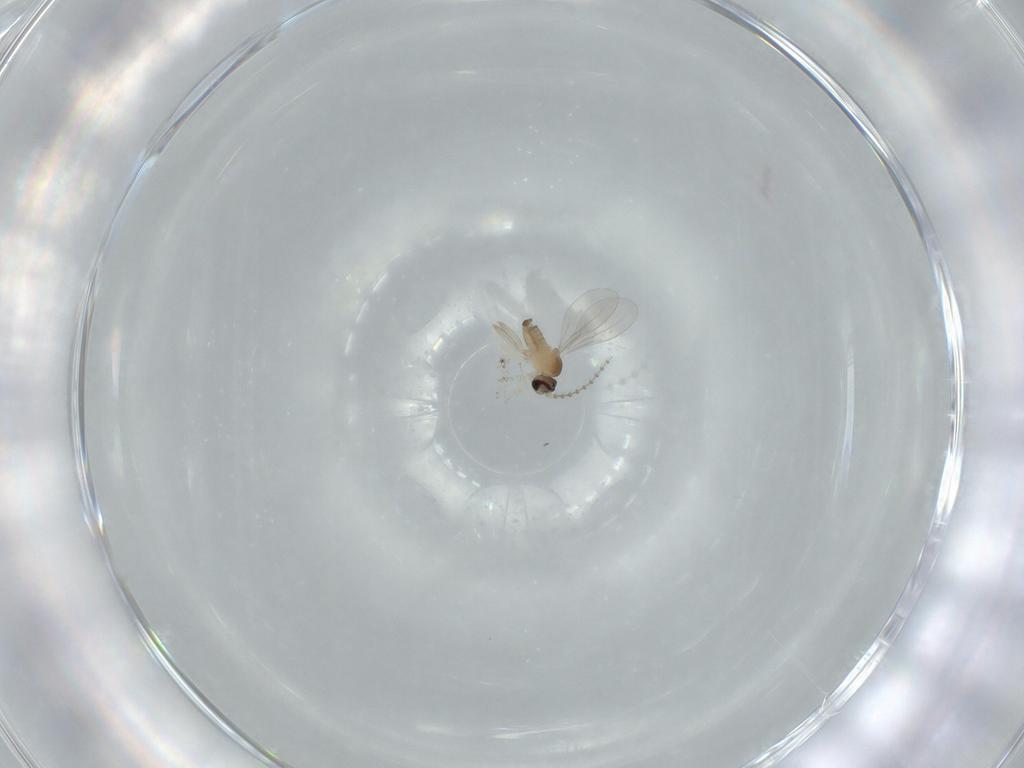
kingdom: Animalia
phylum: Arthropoda
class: Insecta
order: Diptera
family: Cecidomyiidae
